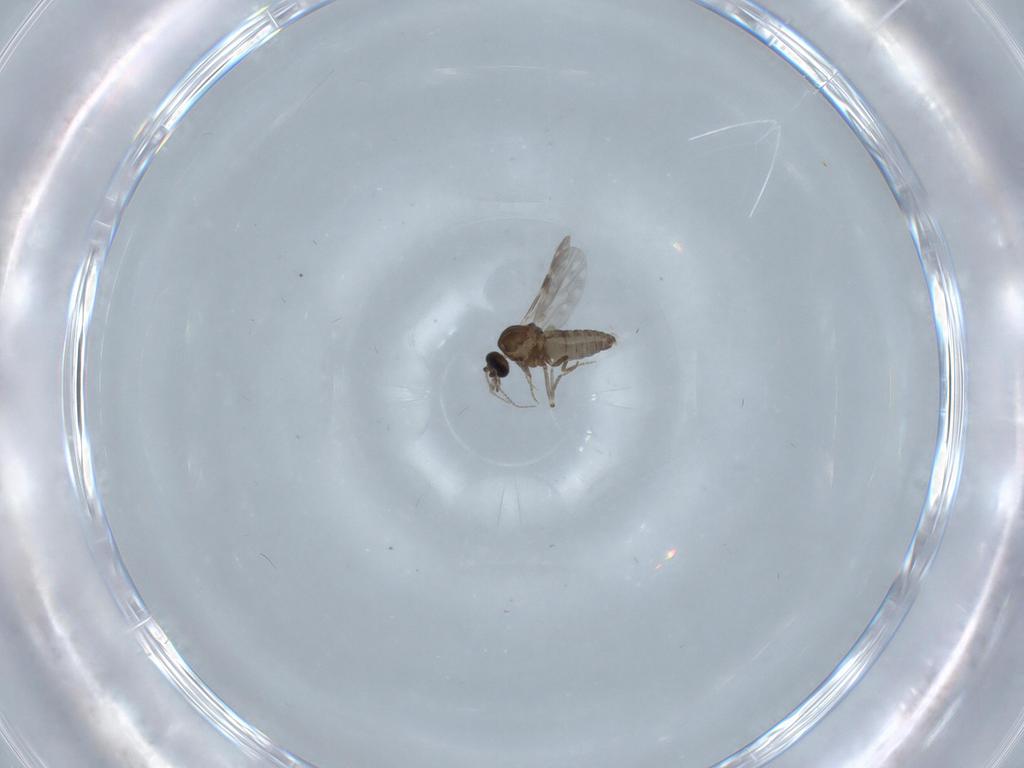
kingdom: Animalia
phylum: Arthropoda
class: Insecta
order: Diptera
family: Ceratopogonidae
